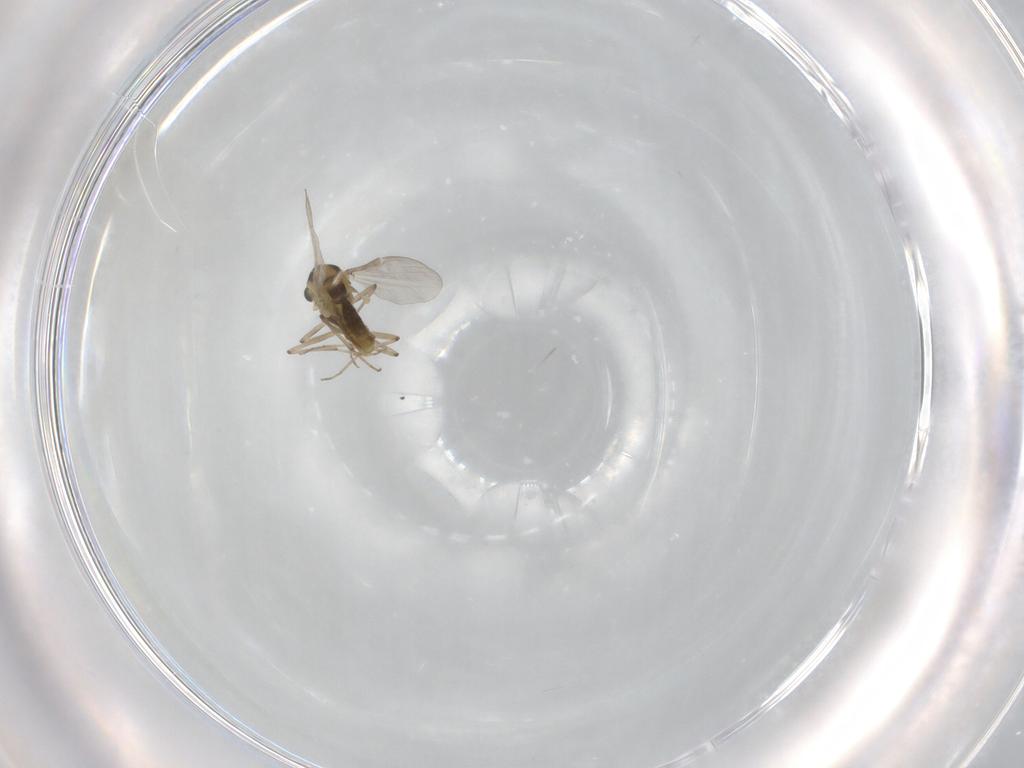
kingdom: Animalia
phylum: Arthropoda
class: Insecta
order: Diptera
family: Chironomidae
